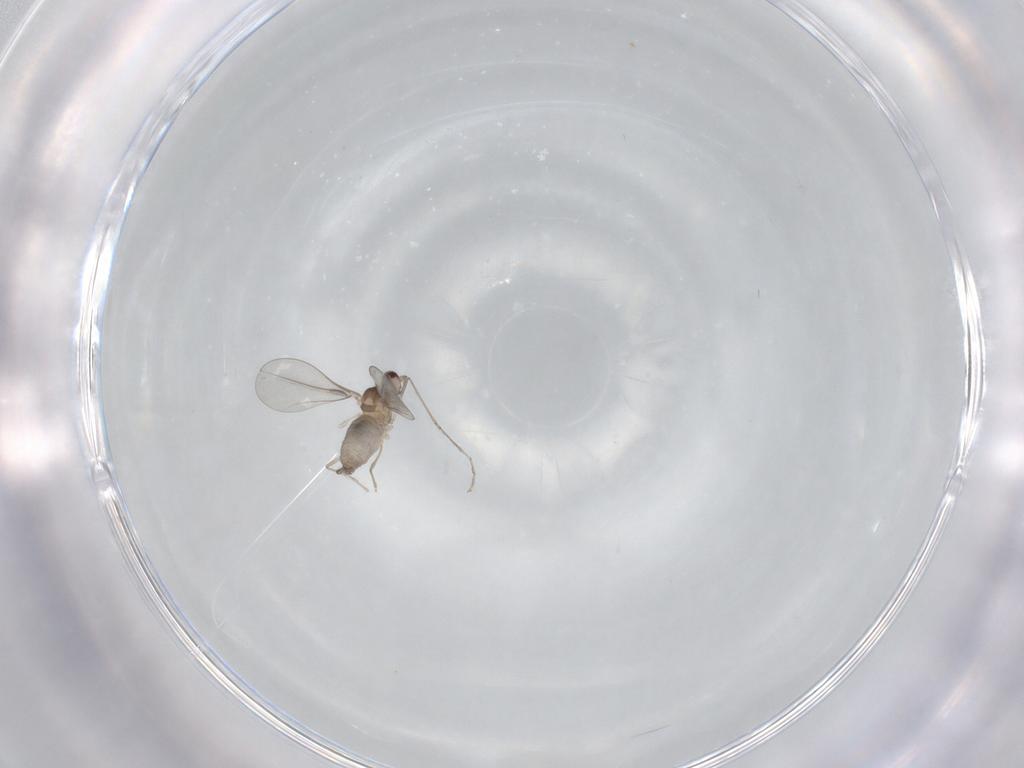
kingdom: Animalia
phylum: Arthropoda
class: Insecta
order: Diptera
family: Cecidomyiidae
